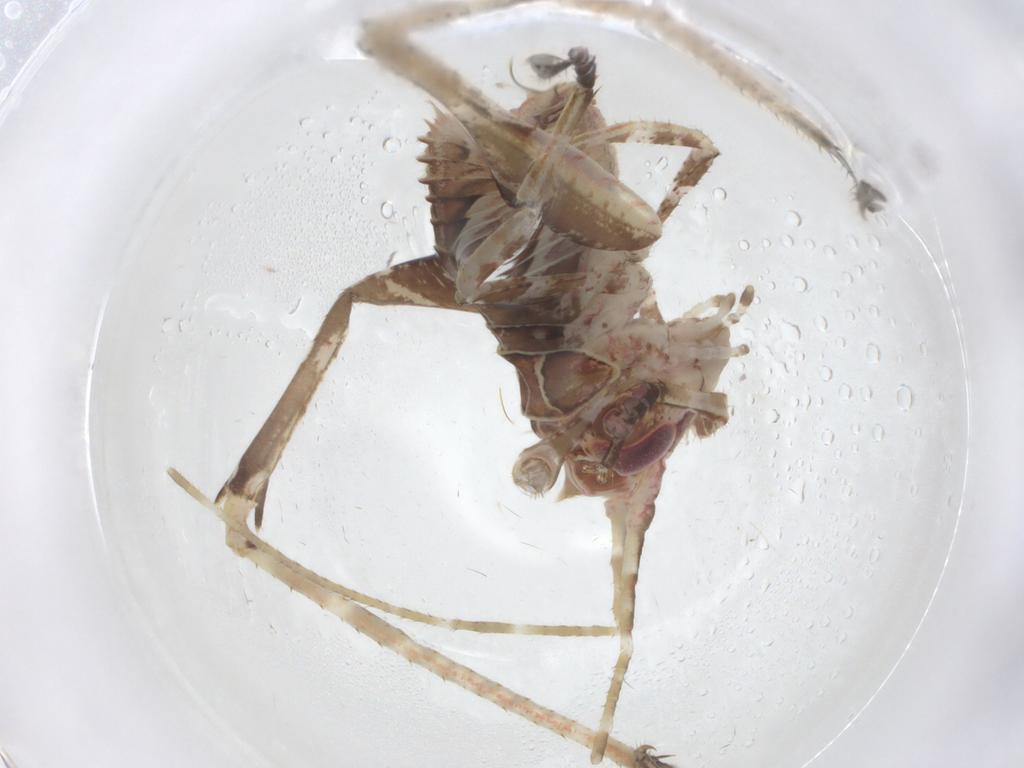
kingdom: Animalia
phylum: Arthropoda
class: Insecta
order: Orthoptera
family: Tettigoniidae
